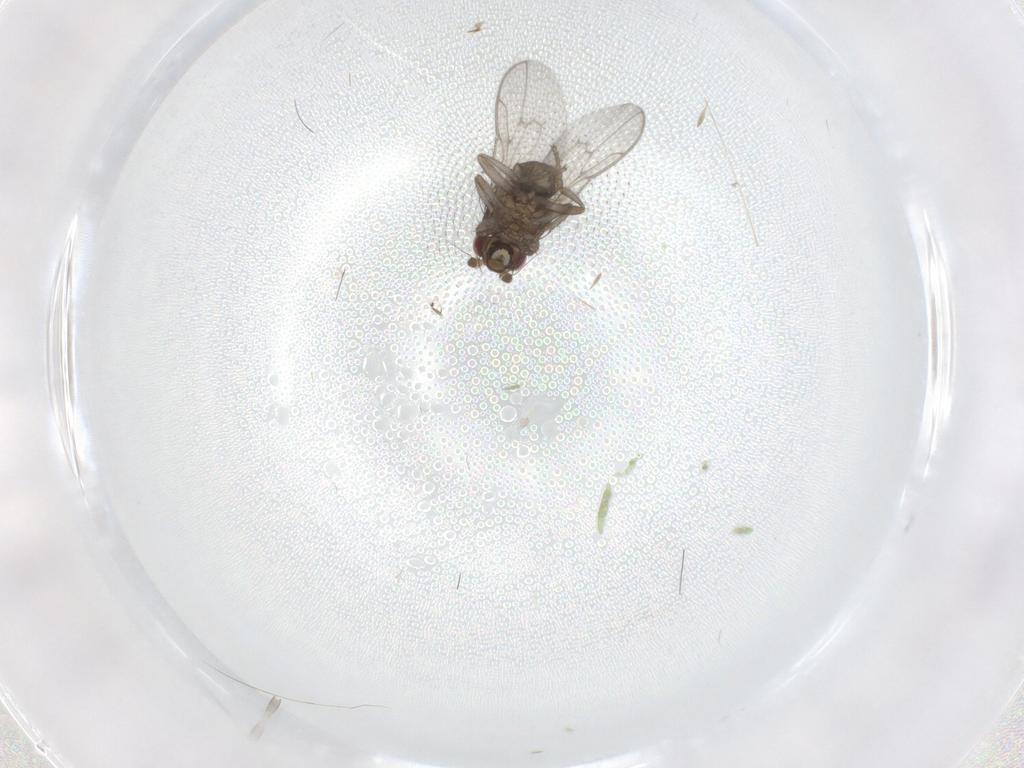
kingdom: Animalia
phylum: Arthropoda
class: Insecta
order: Diptera
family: Sphaeroceridae
